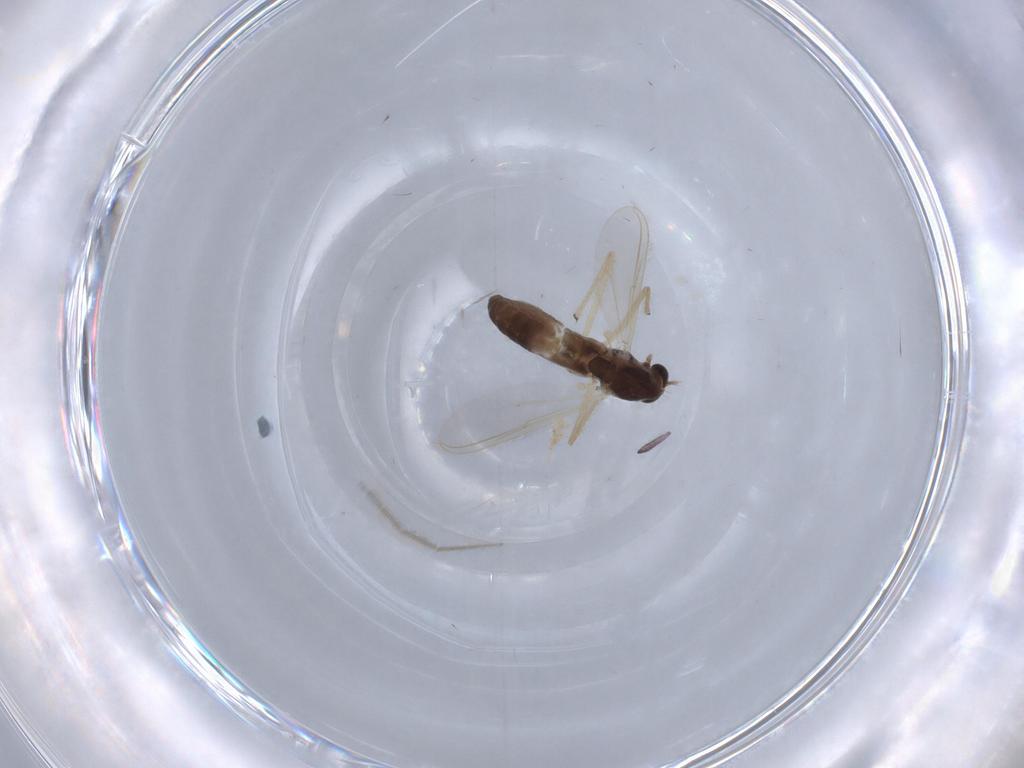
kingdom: Animalia
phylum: Arthropoda
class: Insecta
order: Diptera
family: Chironomidae
